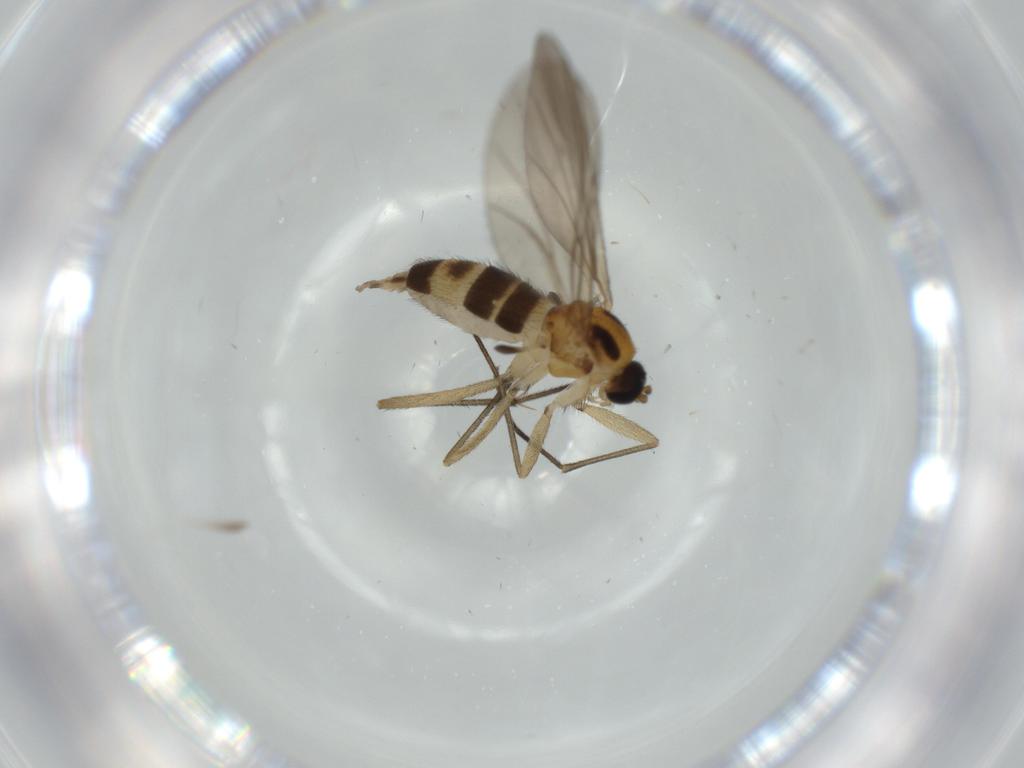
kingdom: Animalia
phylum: Arthropoda
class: Insecta
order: Diptera
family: Sciaridae
